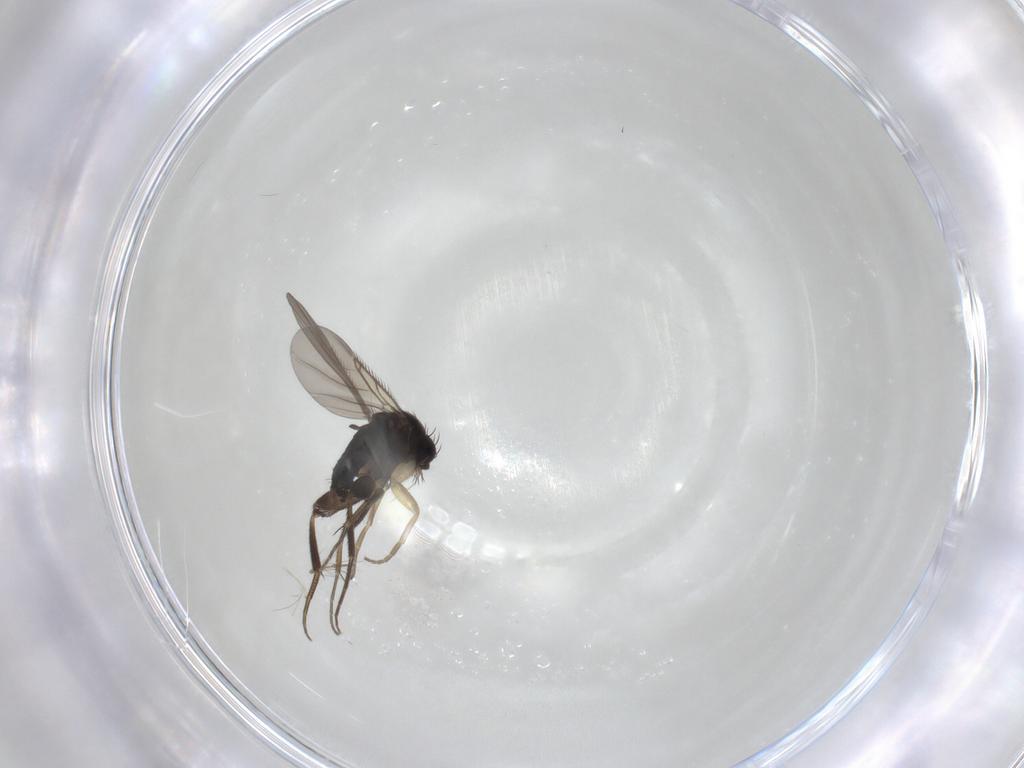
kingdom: Animalia
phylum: Arthropoda
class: Insecta
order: Diptera
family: Phoridae
